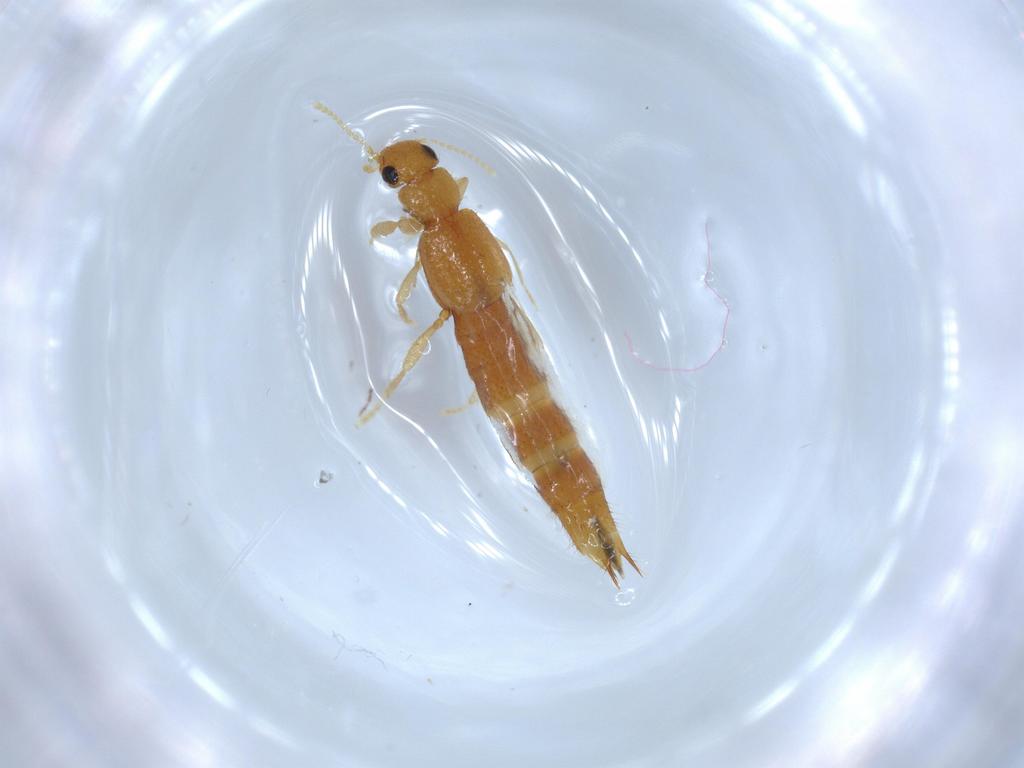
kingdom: Animalia
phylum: Arthropoda
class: Insecta
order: Coleoptera
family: Staphylinidae
